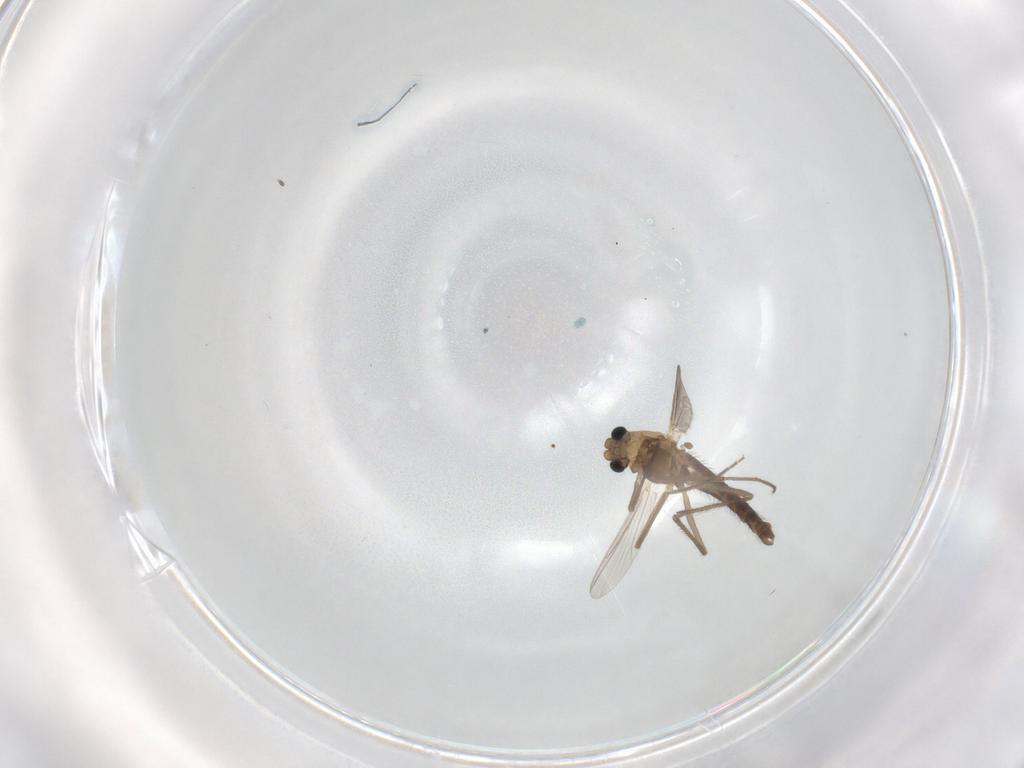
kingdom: Animalia
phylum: Arthropoda
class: Insecta
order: Diptera
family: Chironomidae
